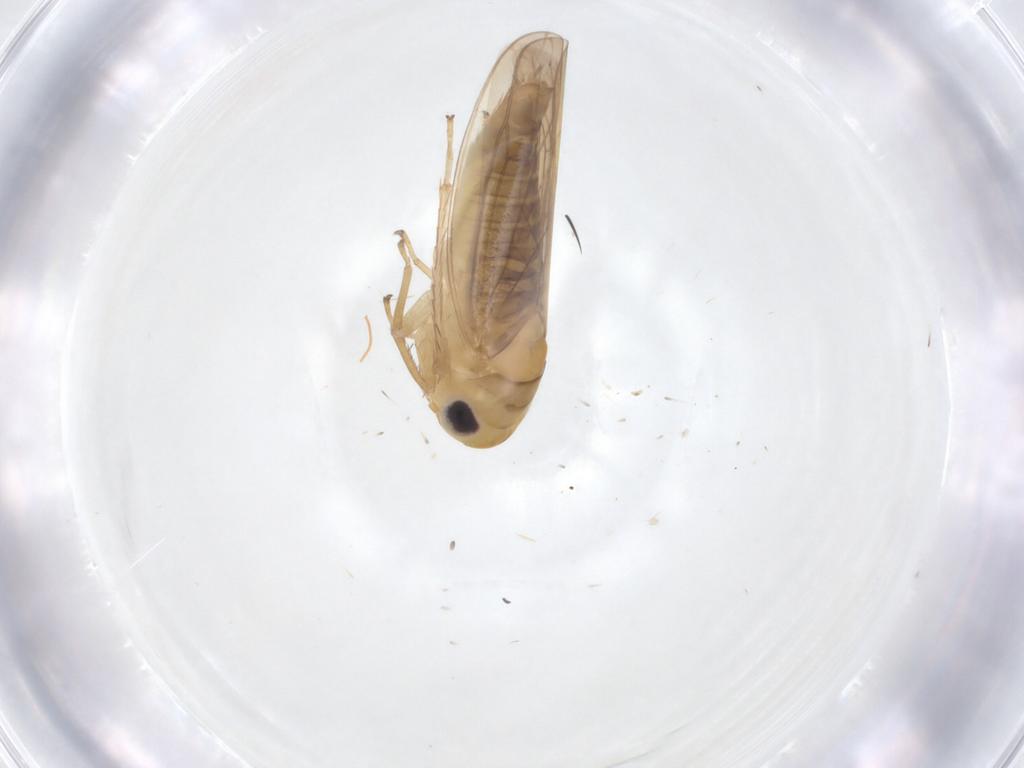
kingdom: Animalia
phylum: Arthropoda
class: Insecta
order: Hemiptera
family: Cicadellidae
